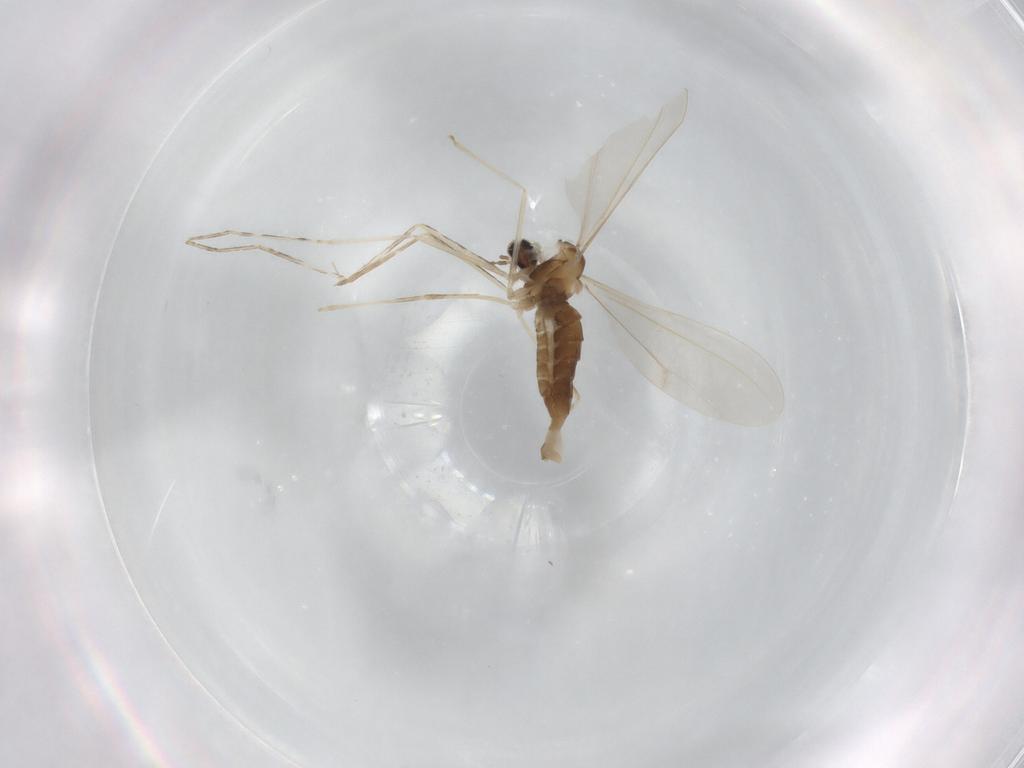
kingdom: Animalia
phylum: Arthropoda
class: Insecta
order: Diptera
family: Cecidomyiidae
